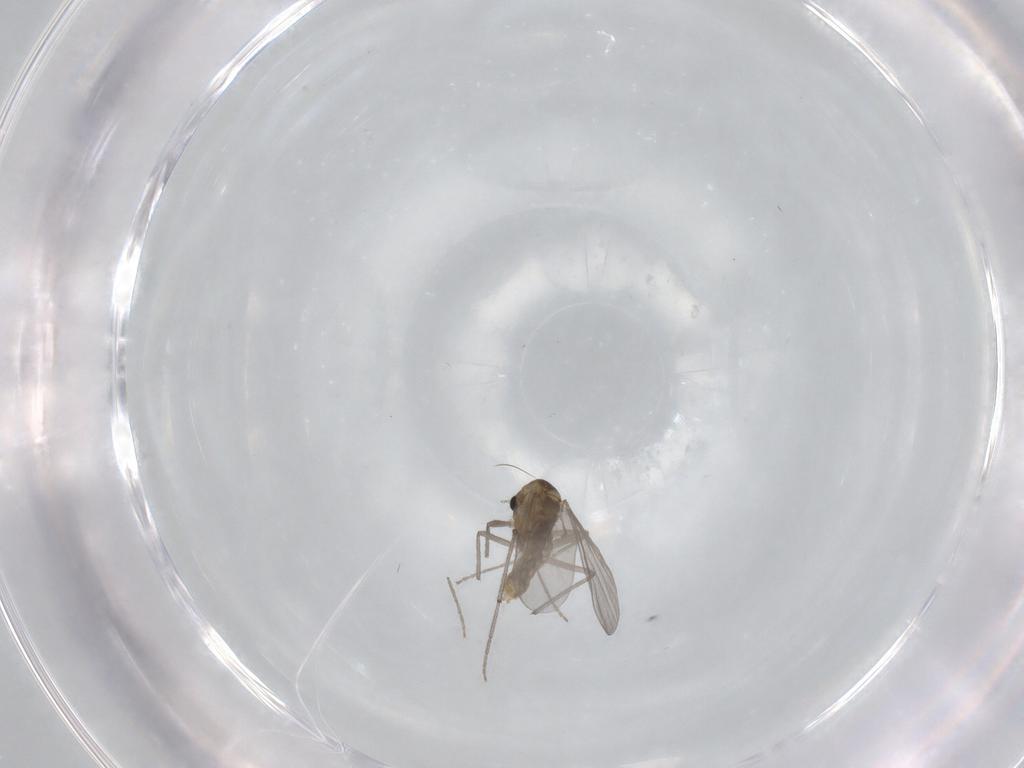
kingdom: Animalia
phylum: Arthropoda
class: Insecta
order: Diptera
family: Chironomidae
